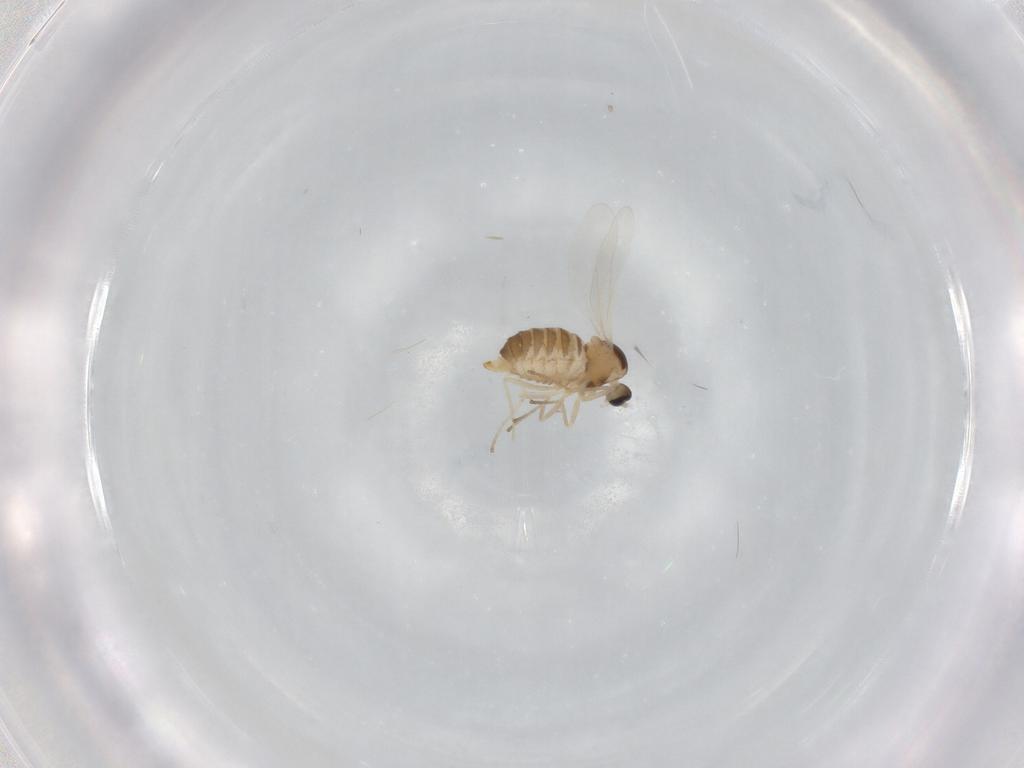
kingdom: Animalia
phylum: Arthropoda
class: Insecta
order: Diptera
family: Cecidomyiidae
